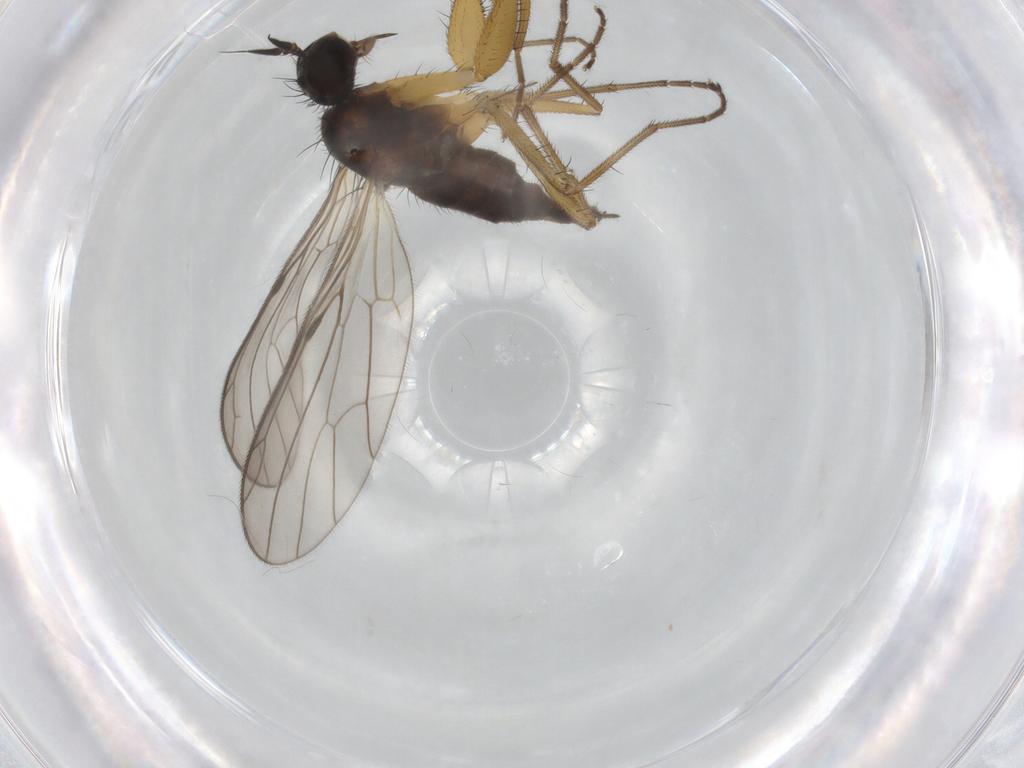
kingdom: Animalia
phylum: Arthropoda
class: Insecta
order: Diptera
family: Empididae
